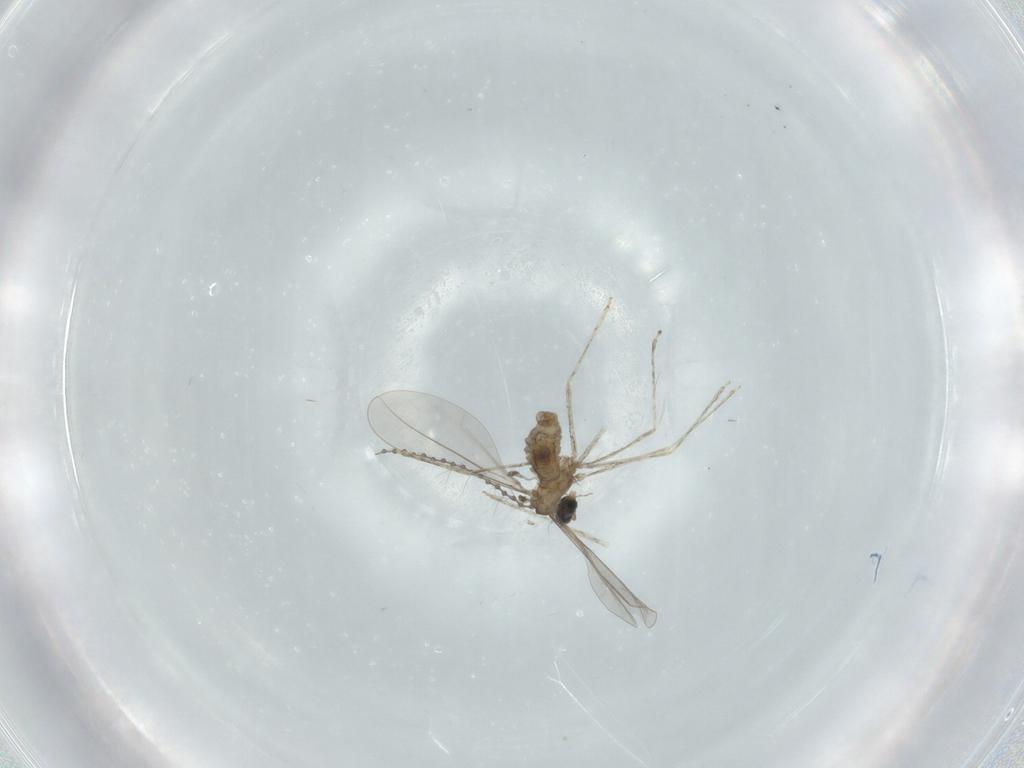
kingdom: Animalia
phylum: Arthropoda
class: Insecta
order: Diptera
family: Cecidomyiidae
